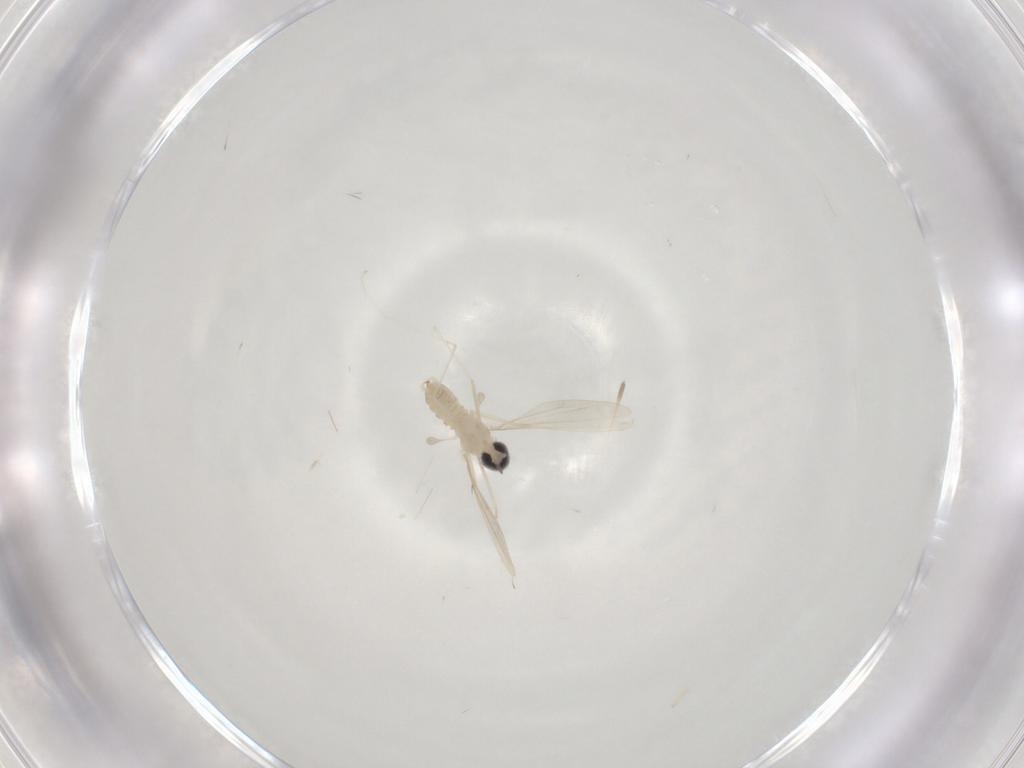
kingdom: Animalia
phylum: Arthropoda
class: Insecta
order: Diptera
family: Cecidomyiidae
